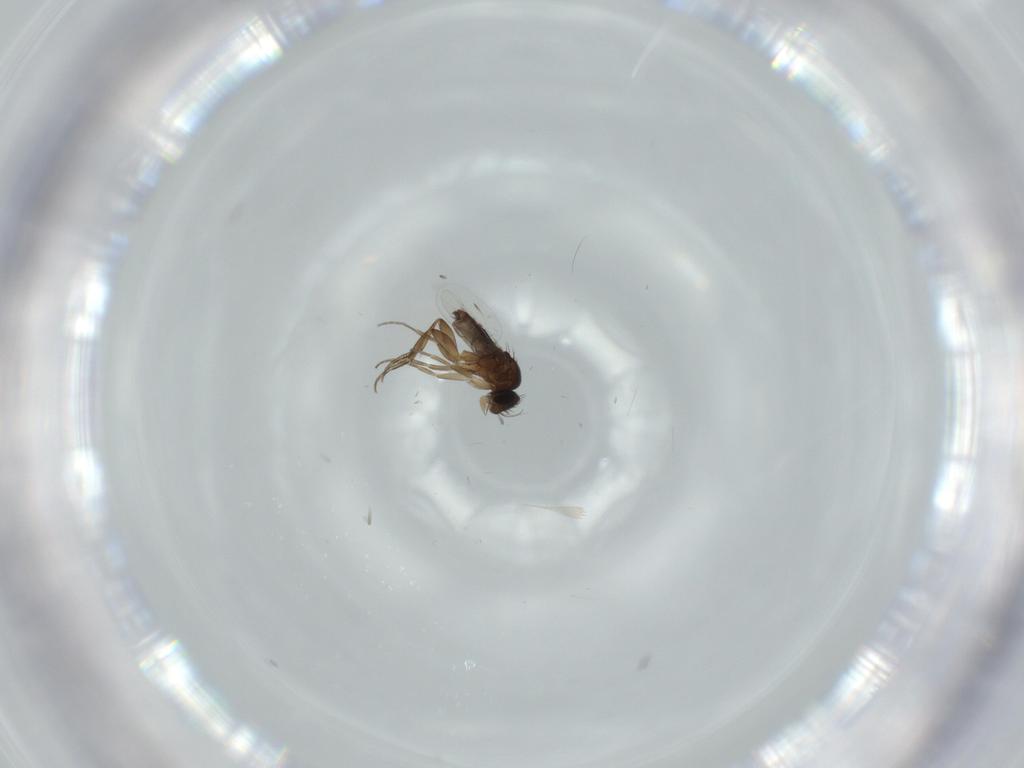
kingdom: Animalia
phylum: Arthropoda
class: Insecta
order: Diptera
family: Phoridae
